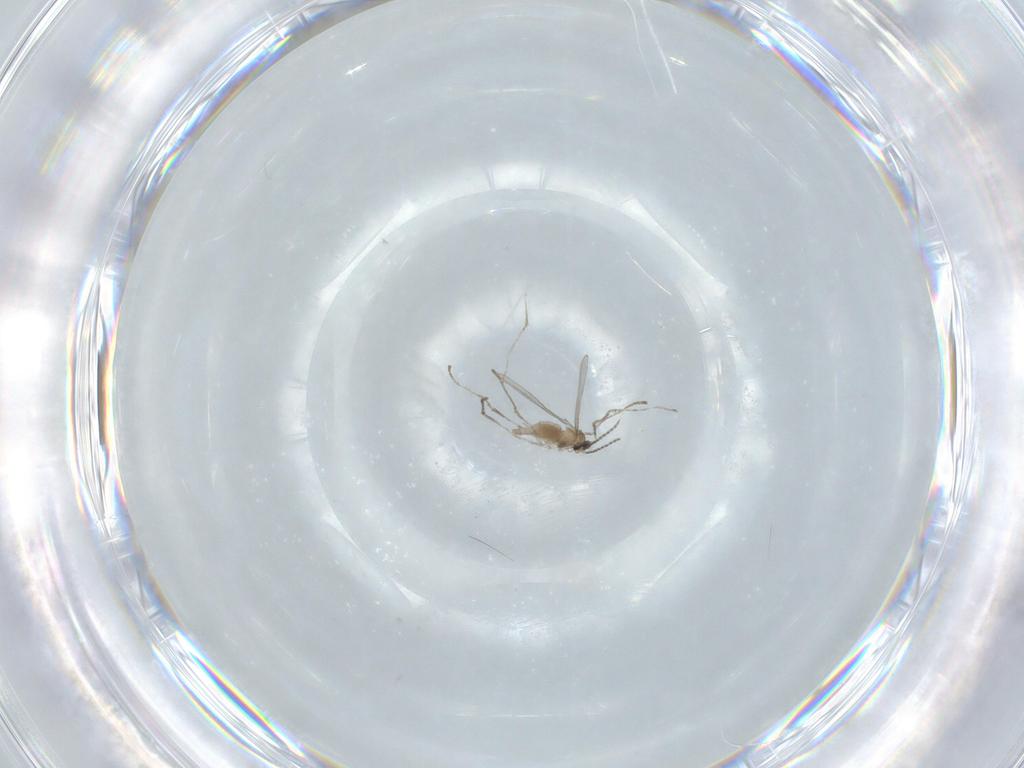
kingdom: Animalia
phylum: Arthropoda
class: Insecta
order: Diptera
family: Cecidomyiidae
